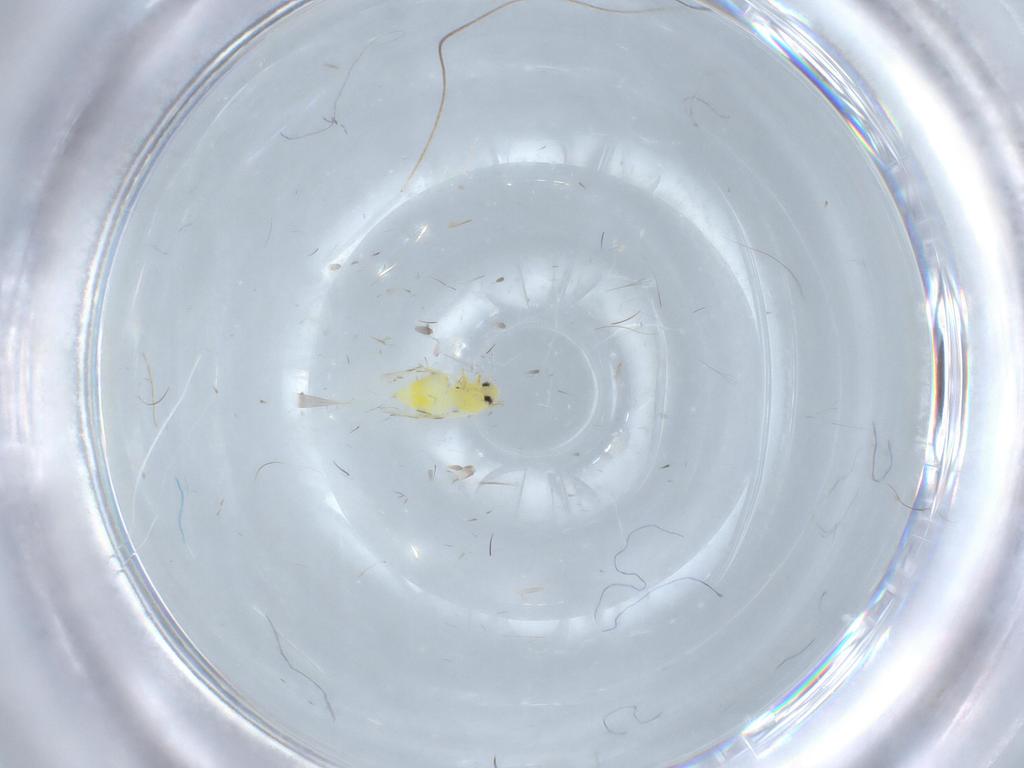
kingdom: Animalia
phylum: Arthropoda
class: Insecta
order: Hemiptera
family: Aleyrodidae
